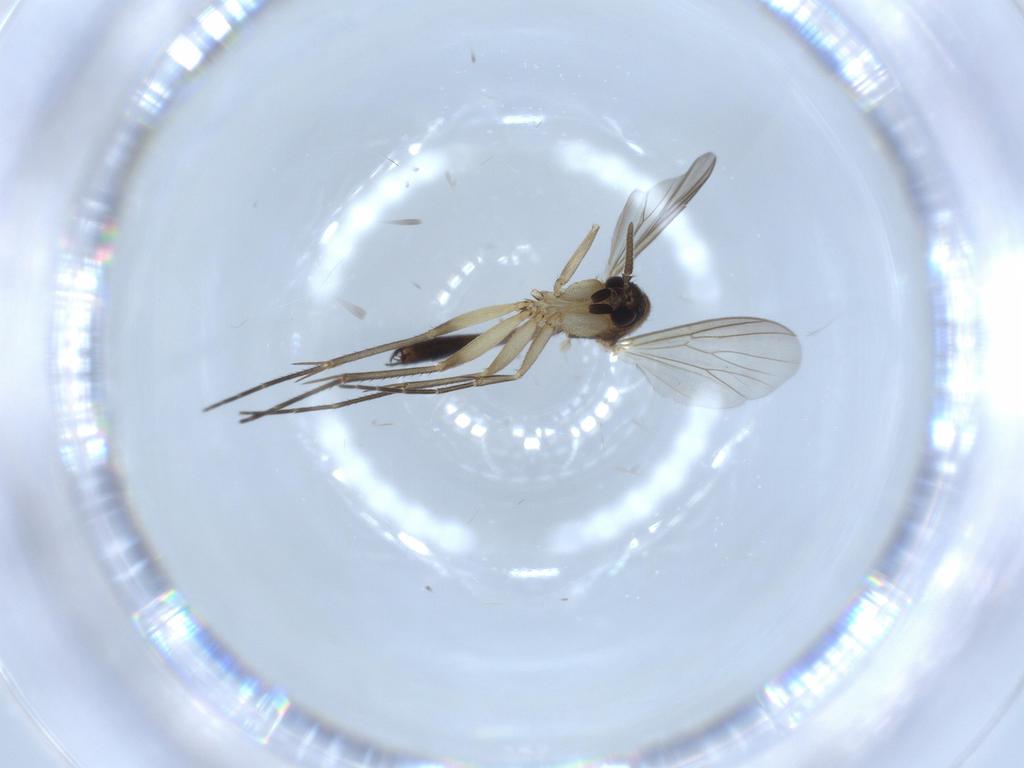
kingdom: Animalia
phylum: Arthropoda
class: Insecta
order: Diptera
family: Mycetophilidae
